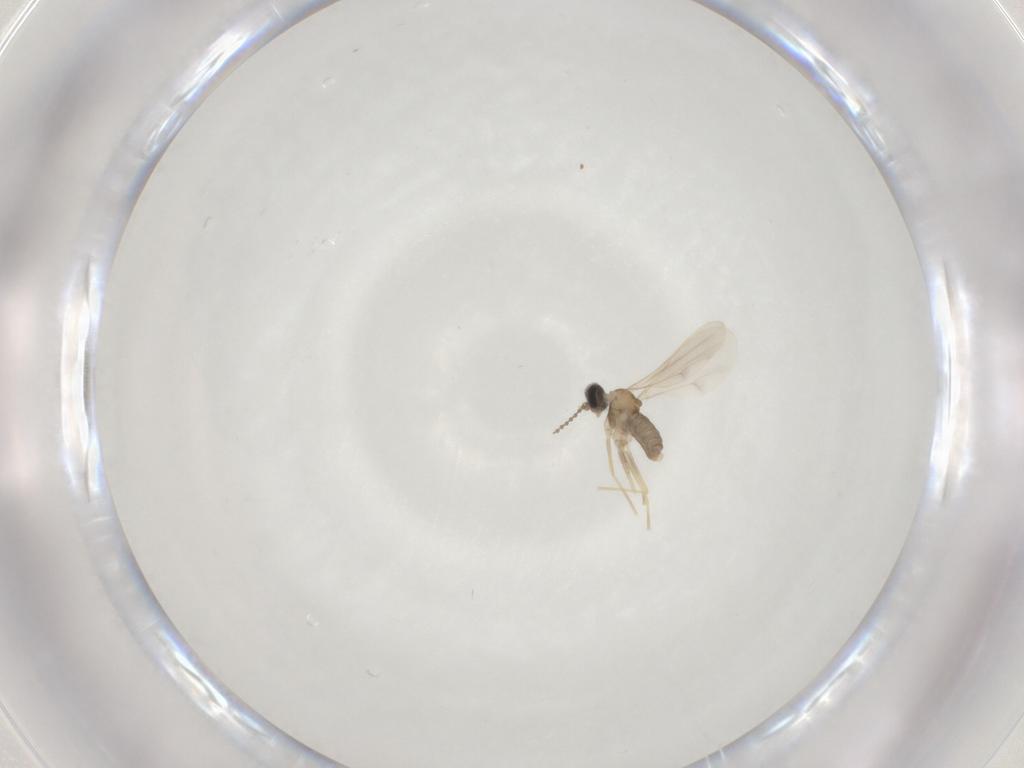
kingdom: Animalia
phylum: Arthropoda
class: Insecta
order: Diptera
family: Cecidomyiidae
